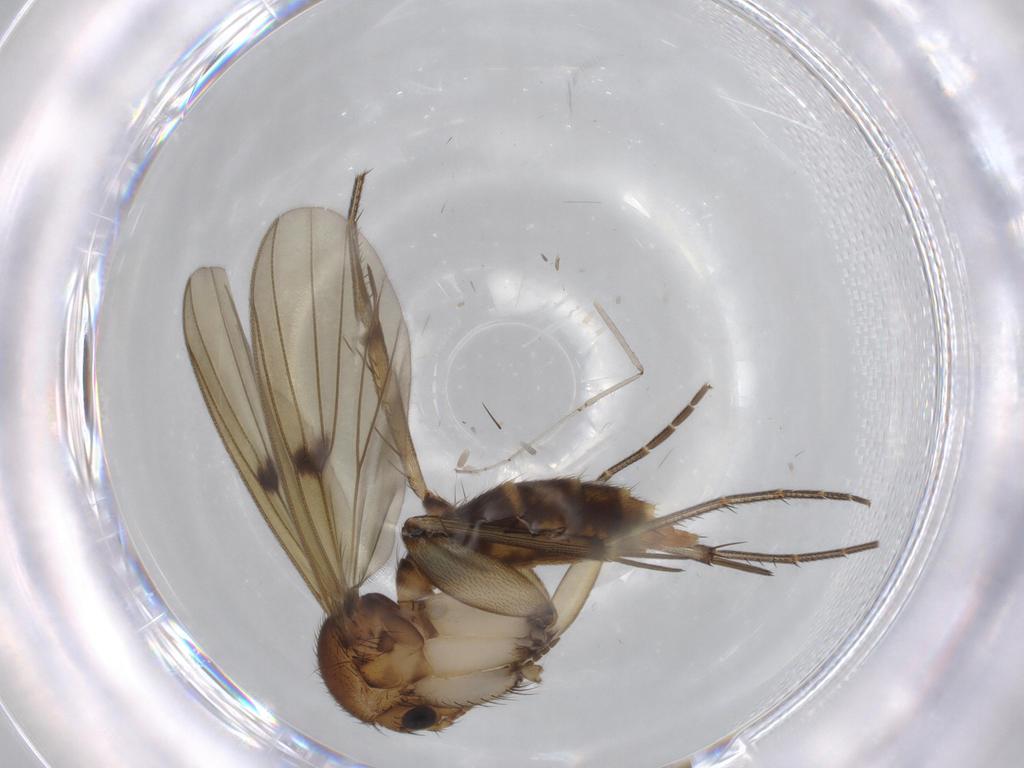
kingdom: Animalia
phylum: Arthropoda
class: Insecta
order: Diptera
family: Mycetophilidae
